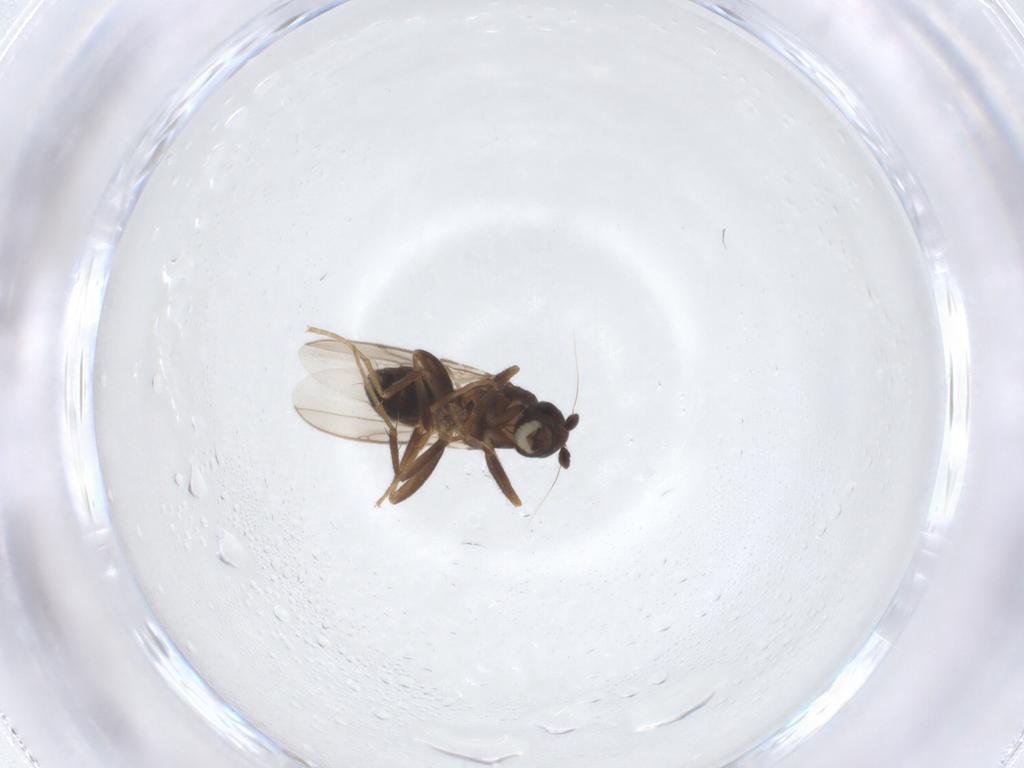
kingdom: Animalia
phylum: Arthropoda
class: Insecta
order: Diptera
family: Sphaeroceridae
